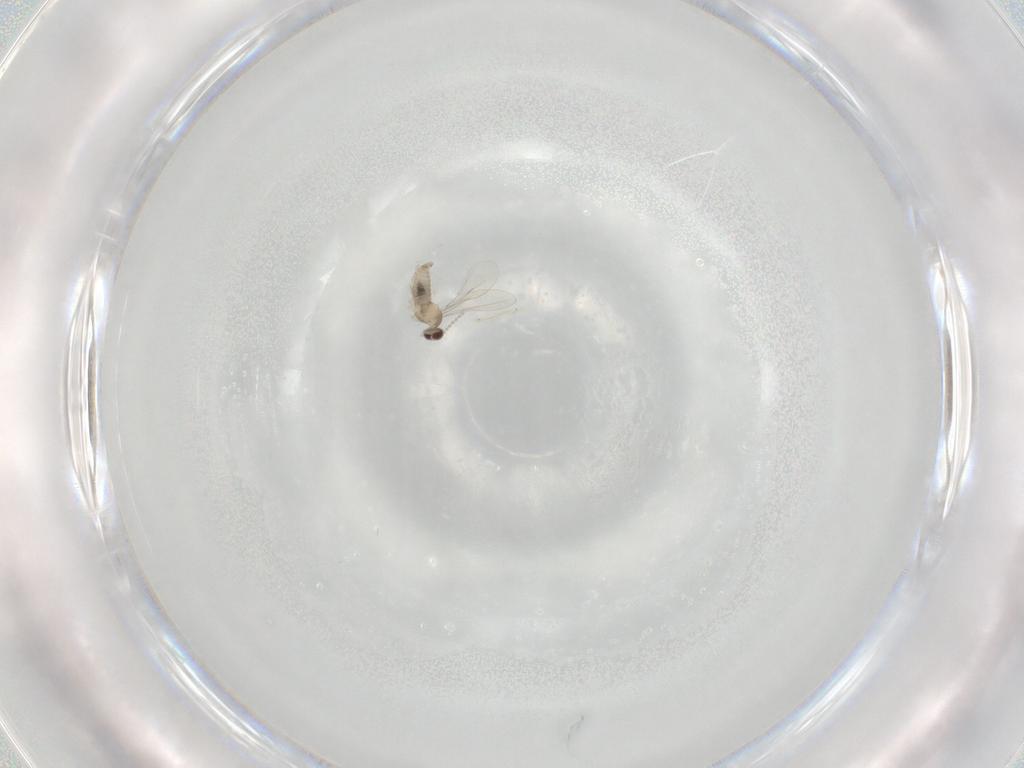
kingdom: Animalia
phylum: Arthropoda
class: Insecta
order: Diptera
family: Cecidomyiidae
